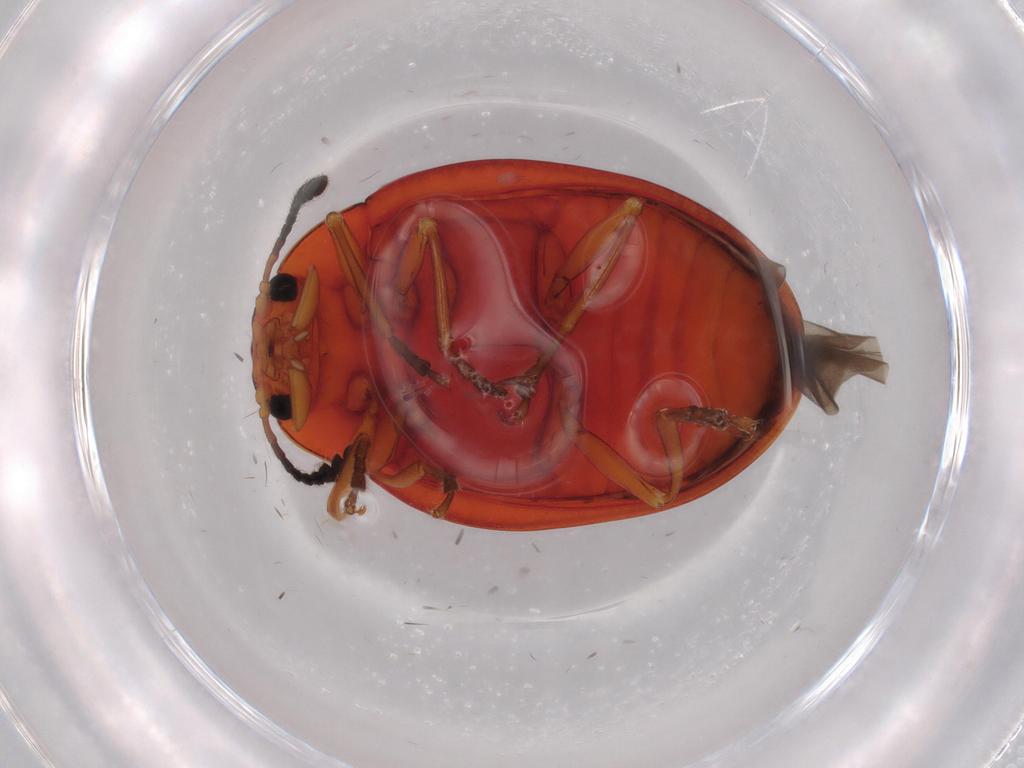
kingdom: Animalia
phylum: Arthropoda
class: Insecta
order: Coleoptera
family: Erotylidae
